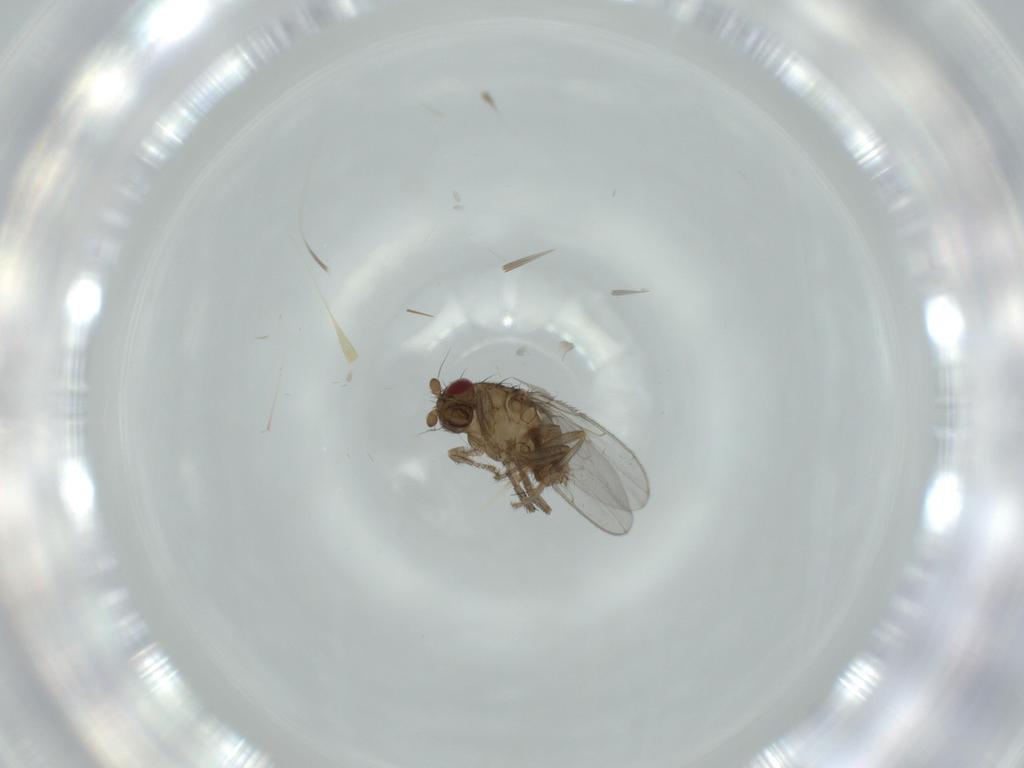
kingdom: Animalia
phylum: Arthropoda
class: Insecta
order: Diptera
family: Psychodidae
